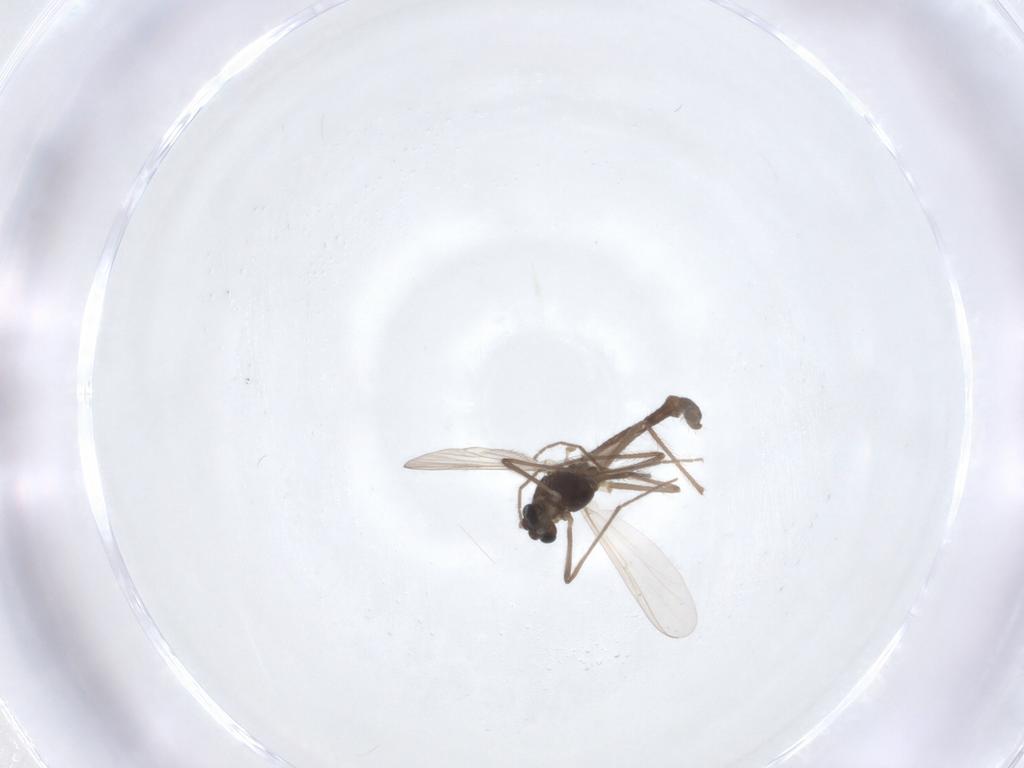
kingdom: Animalia
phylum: Arthropoda
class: Insecta
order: Diptera
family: Chironomidae
